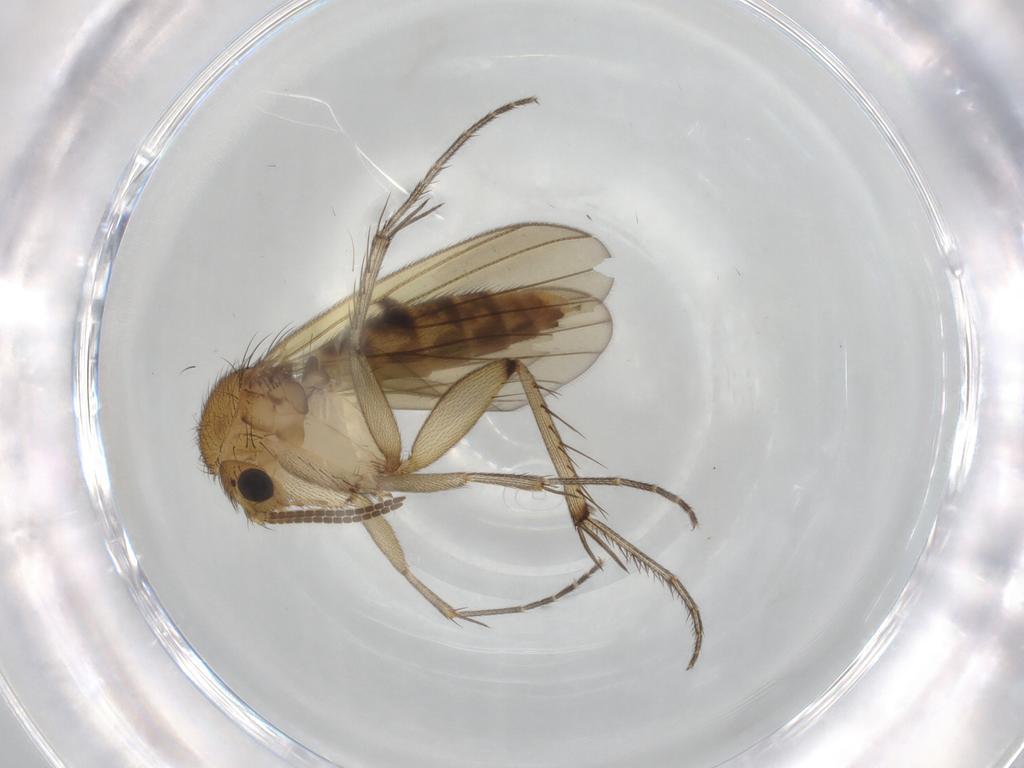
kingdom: Animalia
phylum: Arthropoda
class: Insecta
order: Diptera
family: Mycetophilidae
